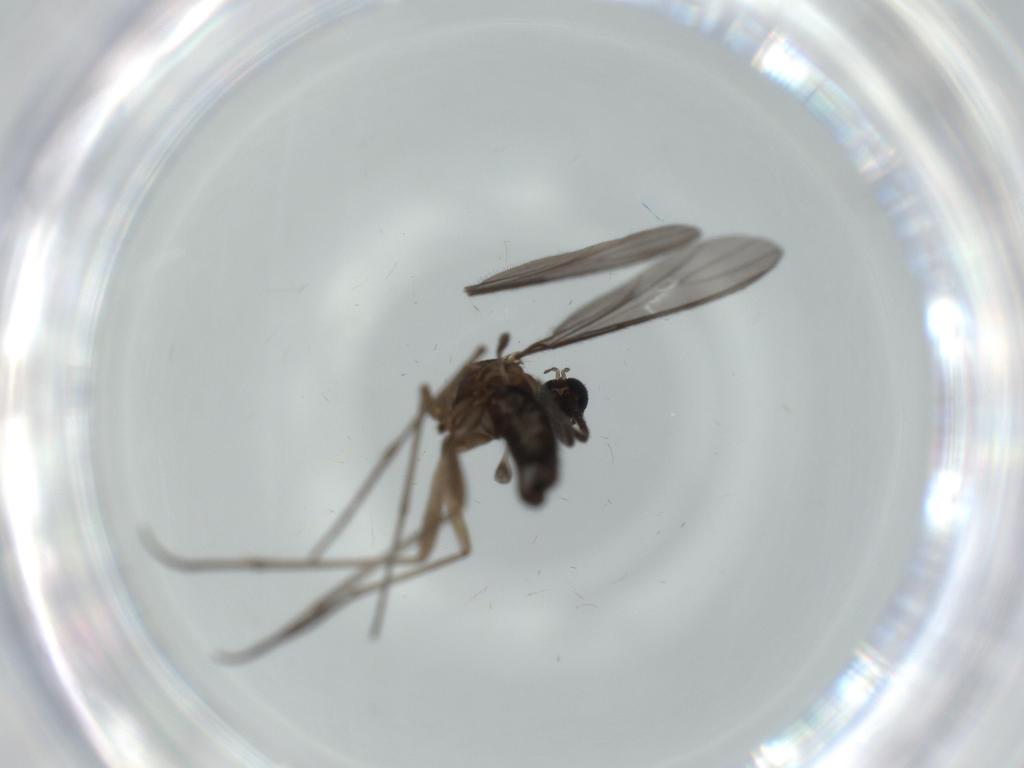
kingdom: Animalia
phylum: Arthropoda
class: Insecta
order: Diptera
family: Sciaridae
